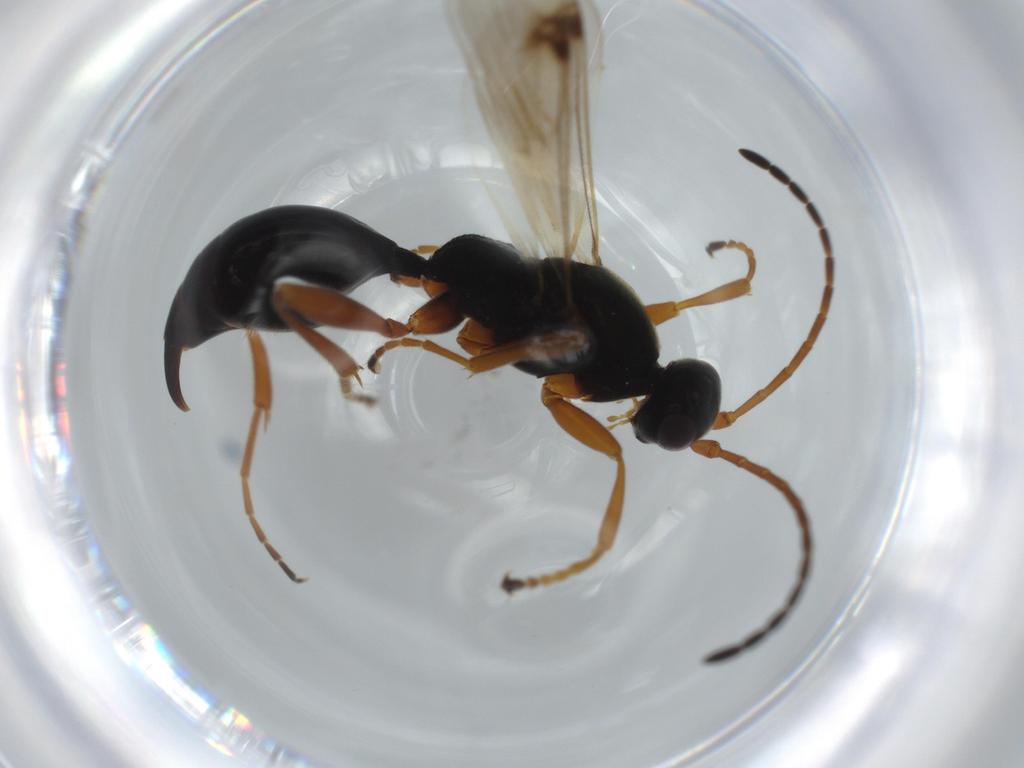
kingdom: Animalia
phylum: Arthropoda
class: Insecta
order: Hymenoptera
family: Proctotrupidae
